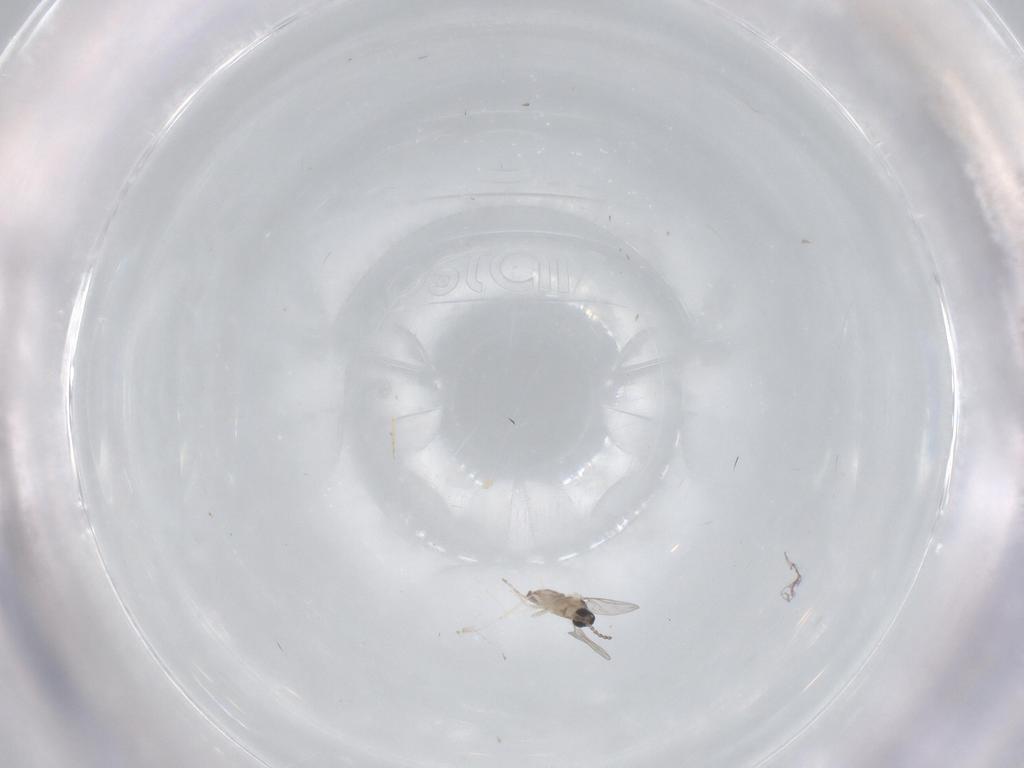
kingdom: Animalia
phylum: Arthropoda
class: Insecta
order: Diptera
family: Cecidomyiidae
